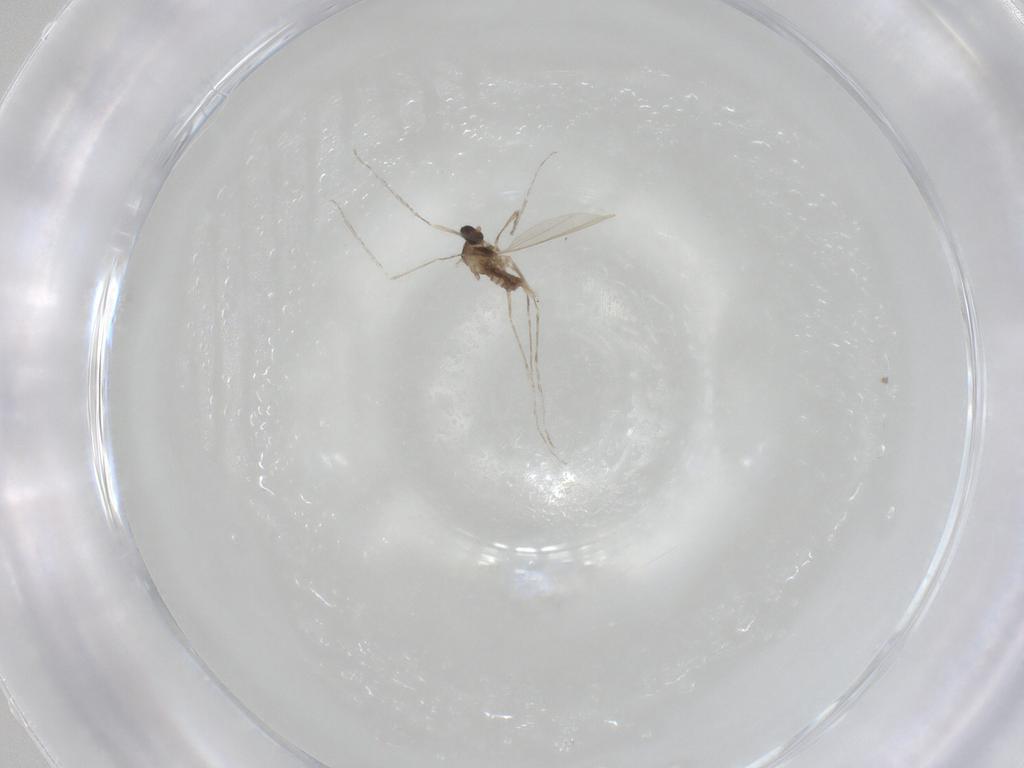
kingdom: Animalia
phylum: Arthropoda
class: Insecta
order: Diptera
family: Cecidomyiidae
